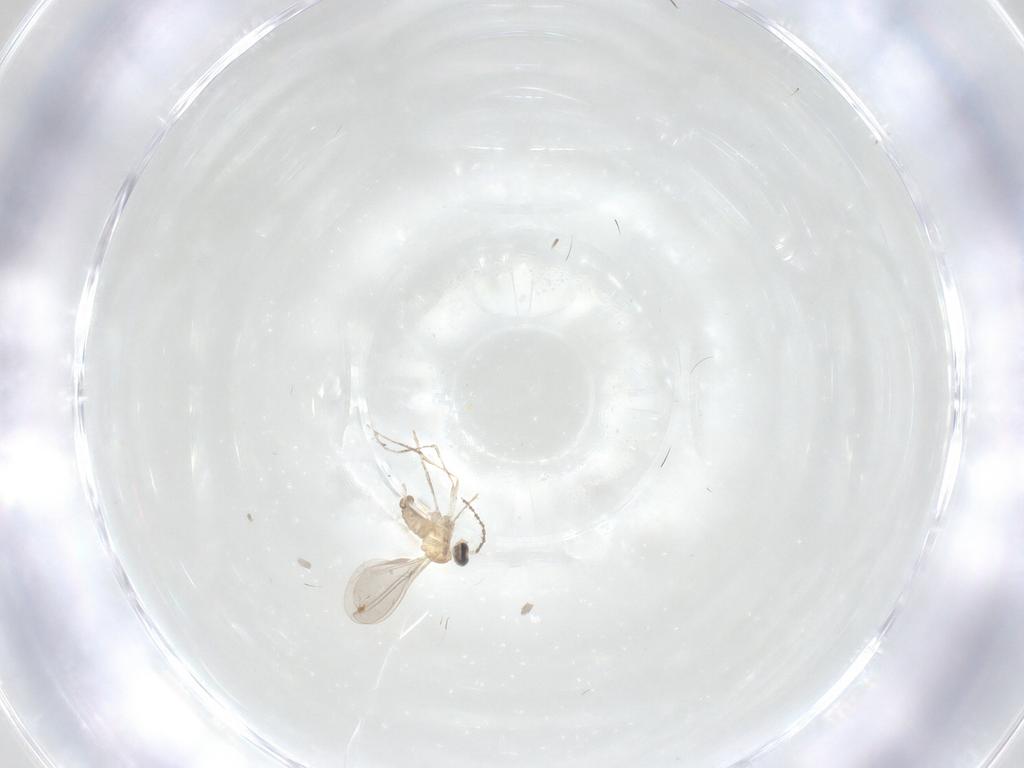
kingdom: Animalia
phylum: Arthropoda
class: Insecta
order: Diptera
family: Cecidomyiidae
